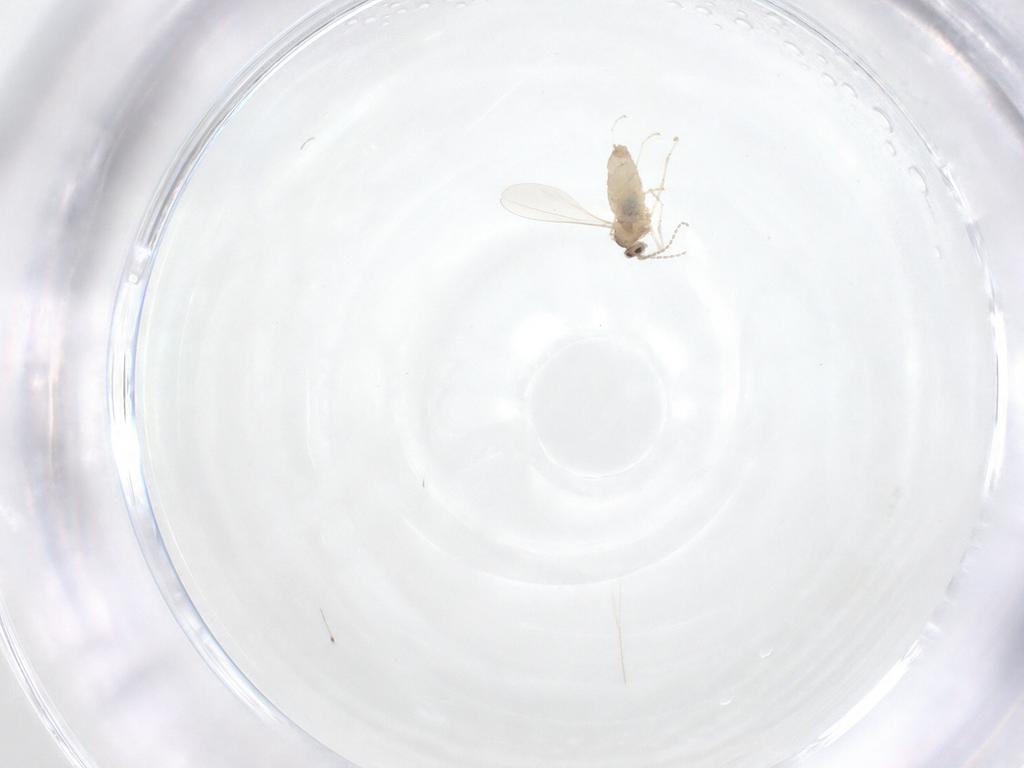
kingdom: Animalia
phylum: Arthropoda
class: Insecta
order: Diptera
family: Cecidomyiidae
